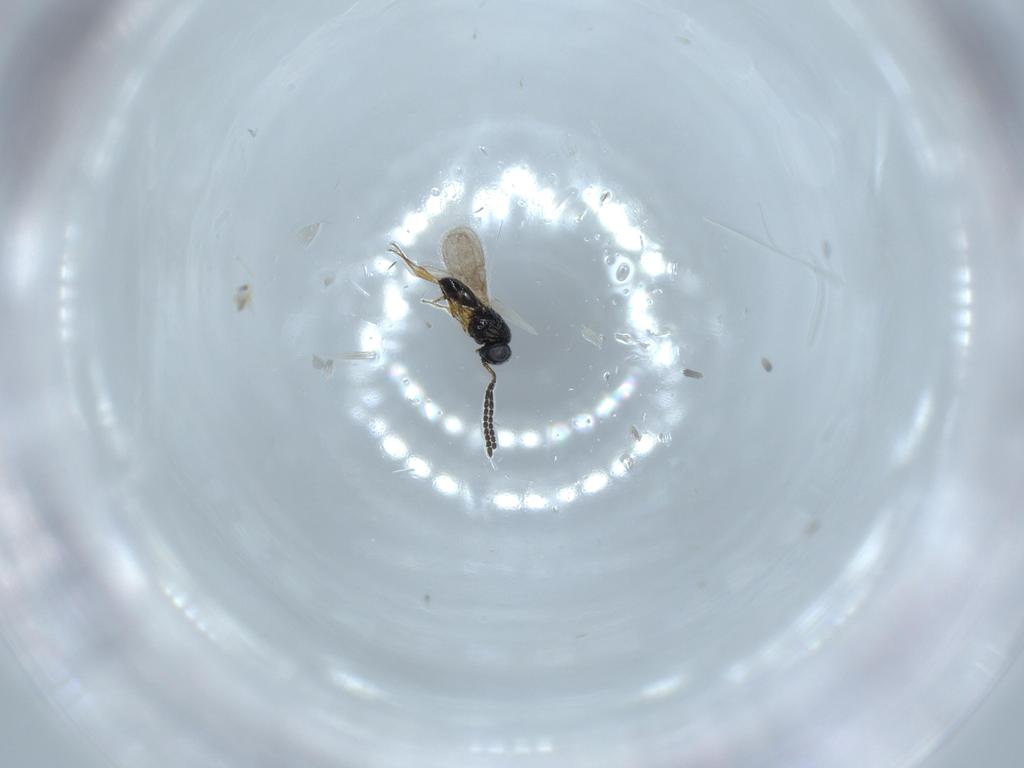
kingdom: Animalia
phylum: Arthropoda
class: Insecta
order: Hymenoptera
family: Scelionidae
